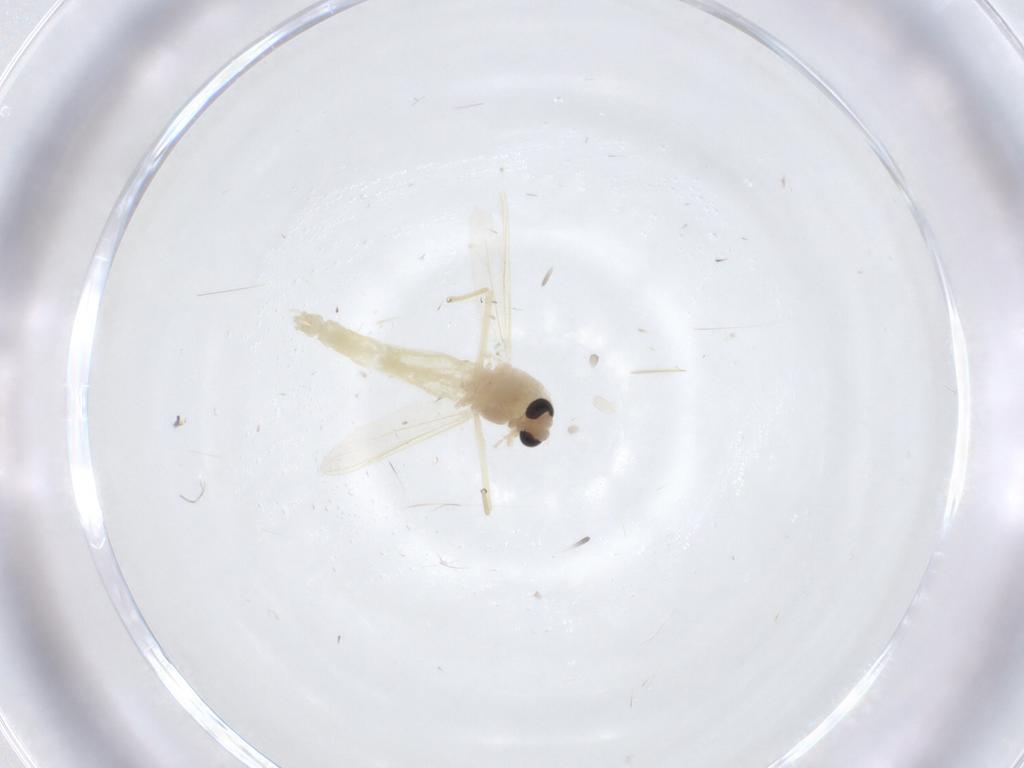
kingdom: Animalia
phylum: Arthropoda
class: Insecta
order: Diptera
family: Chironomidae
